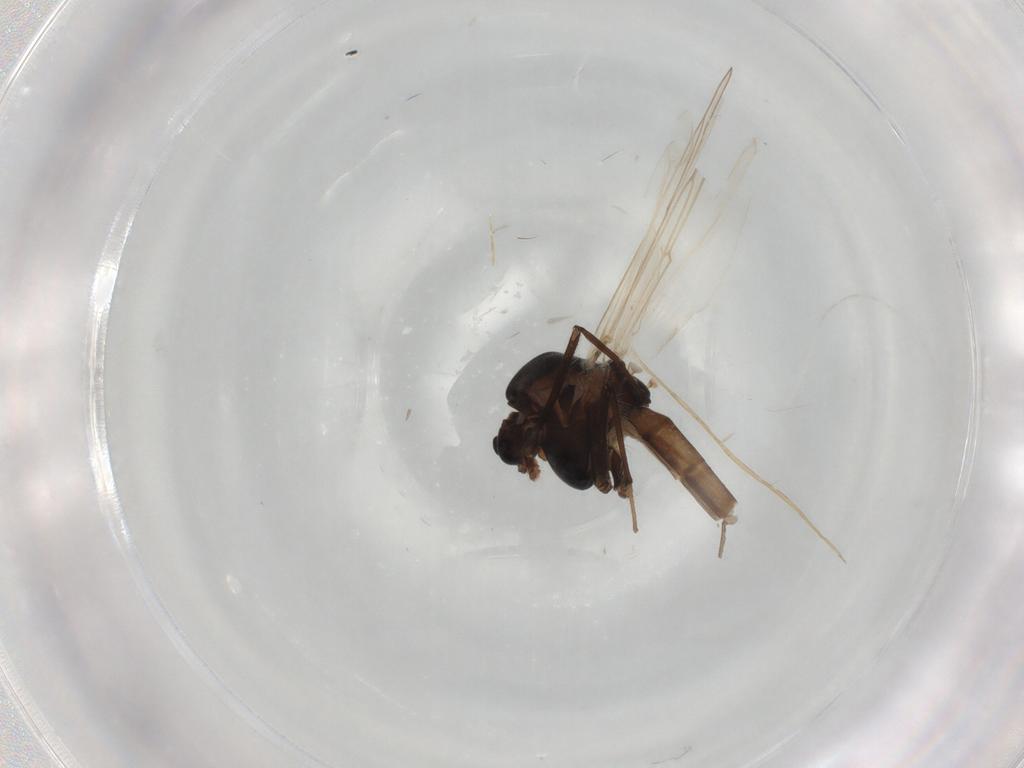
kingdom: Animalia
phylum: Arthropoda
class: Insecta
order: Diptera
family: Chironomidae
